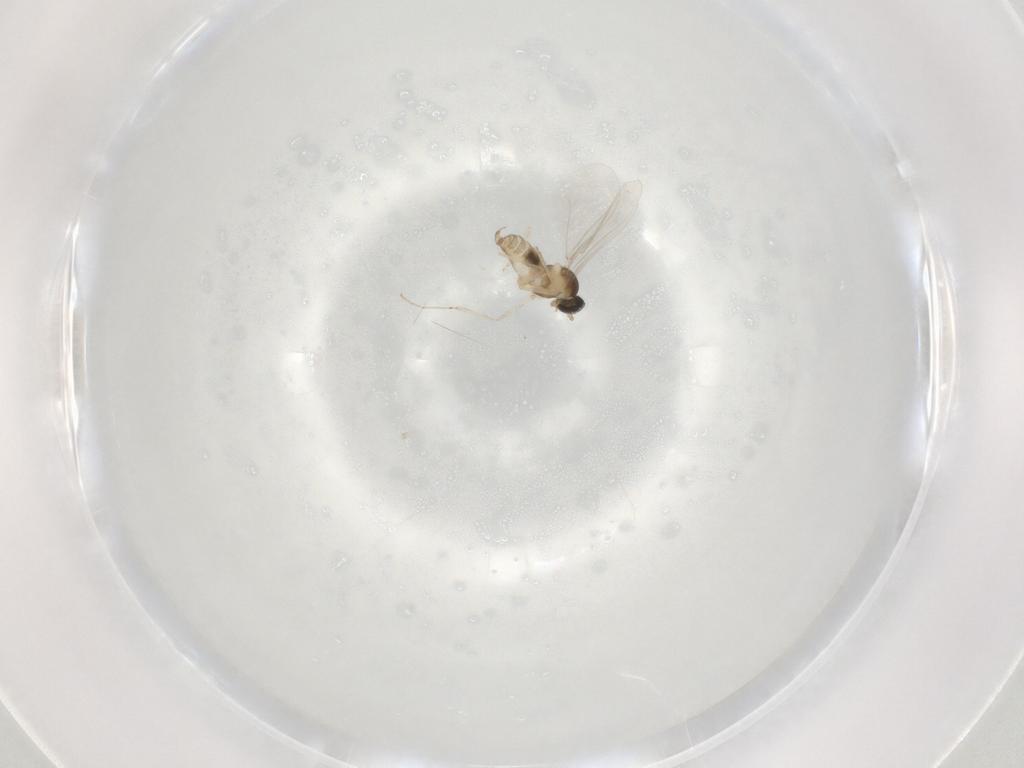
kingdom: Animalia
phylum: Arthropoda
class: Insecta
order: Diptera
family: Cecidomyiidae
